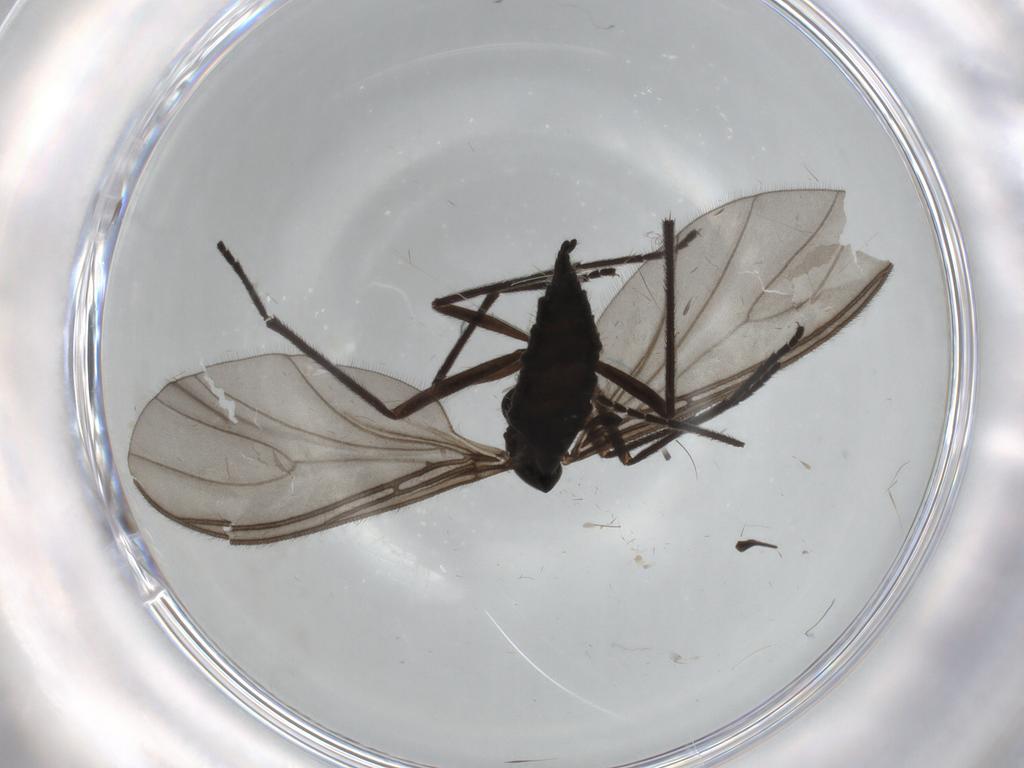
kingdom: Animalia
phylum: Arthropoda
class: Insecta
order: Diptera
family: Sciaridae
